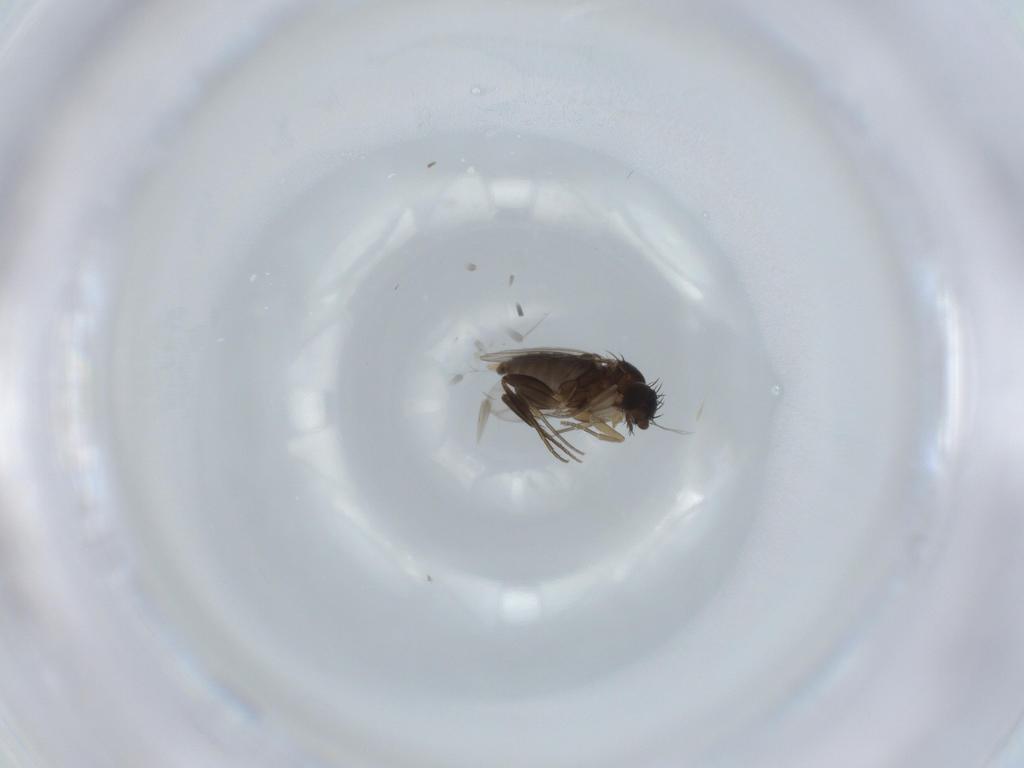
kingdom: Animalia
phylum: Arthropoda
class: Insecta
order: Diptera
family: Phoridae
